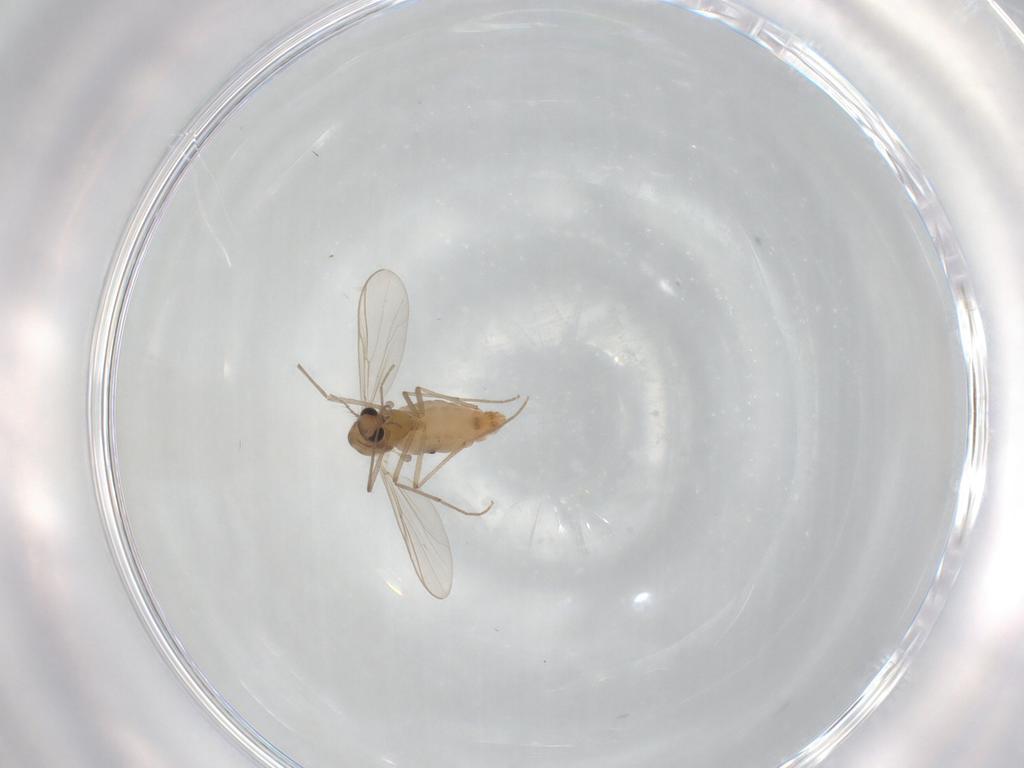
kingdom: Animalia
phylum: Arthropoda
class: Insecta
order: Diptera
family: Chironomidae
